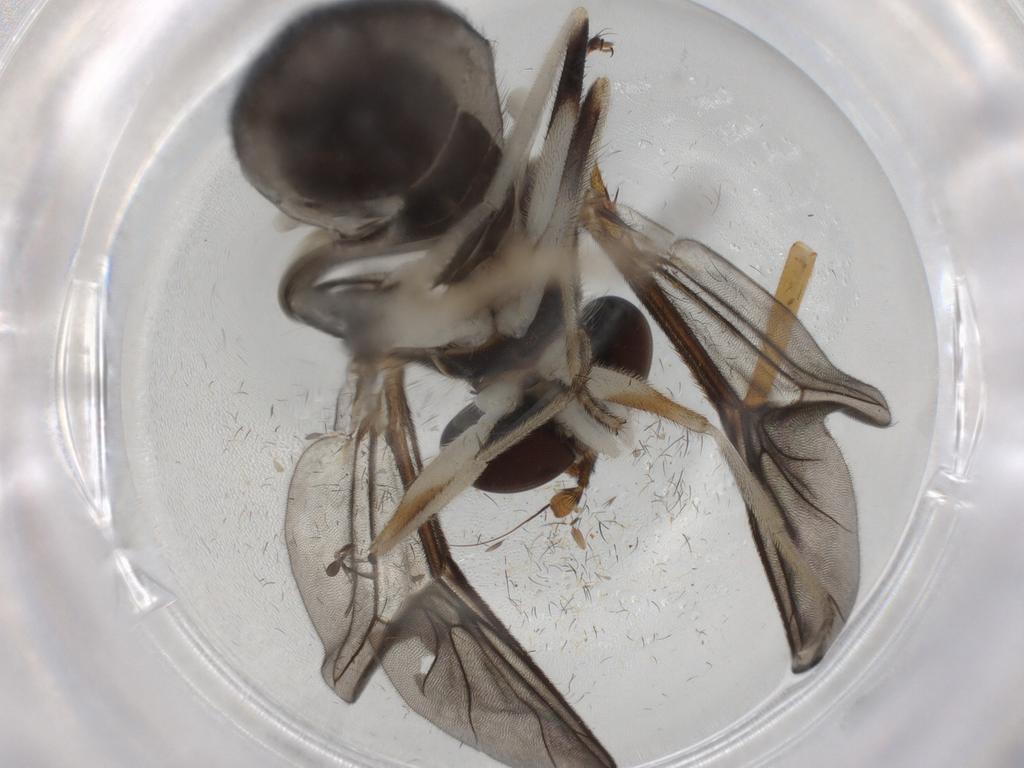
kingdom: Animalia
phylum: Arthropoda
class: Insecta
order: Diptera
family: Phoridae
